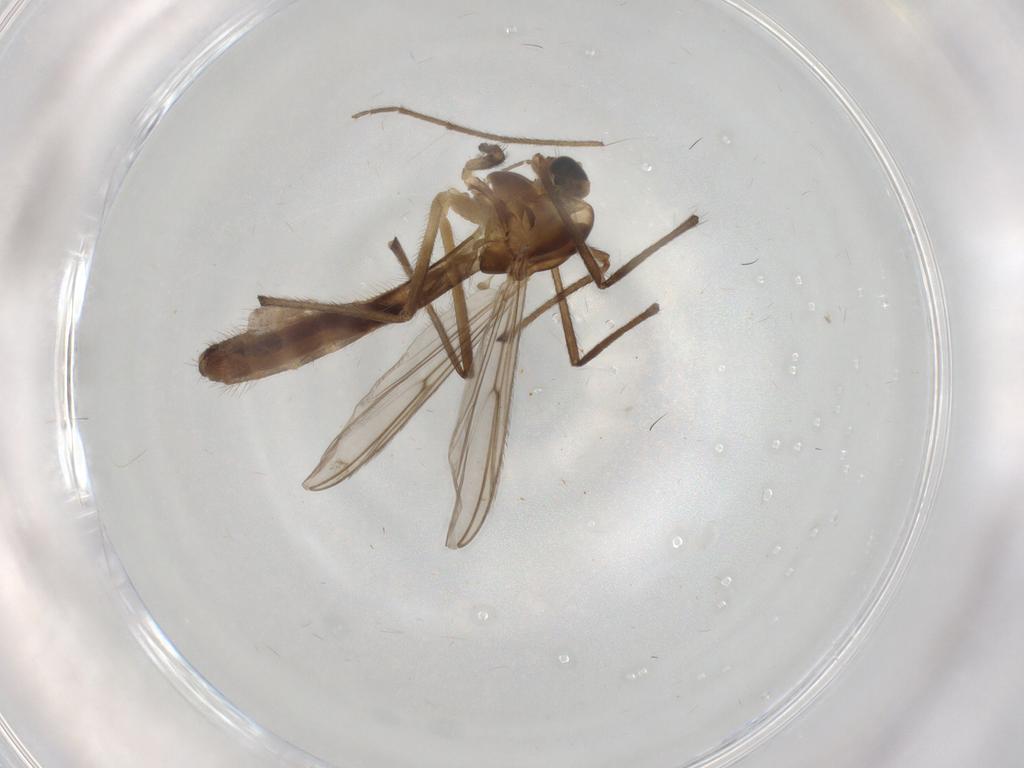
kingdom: Animalia
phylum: Arthropoda
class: Insecta
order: Diptera
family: Chironomidae
